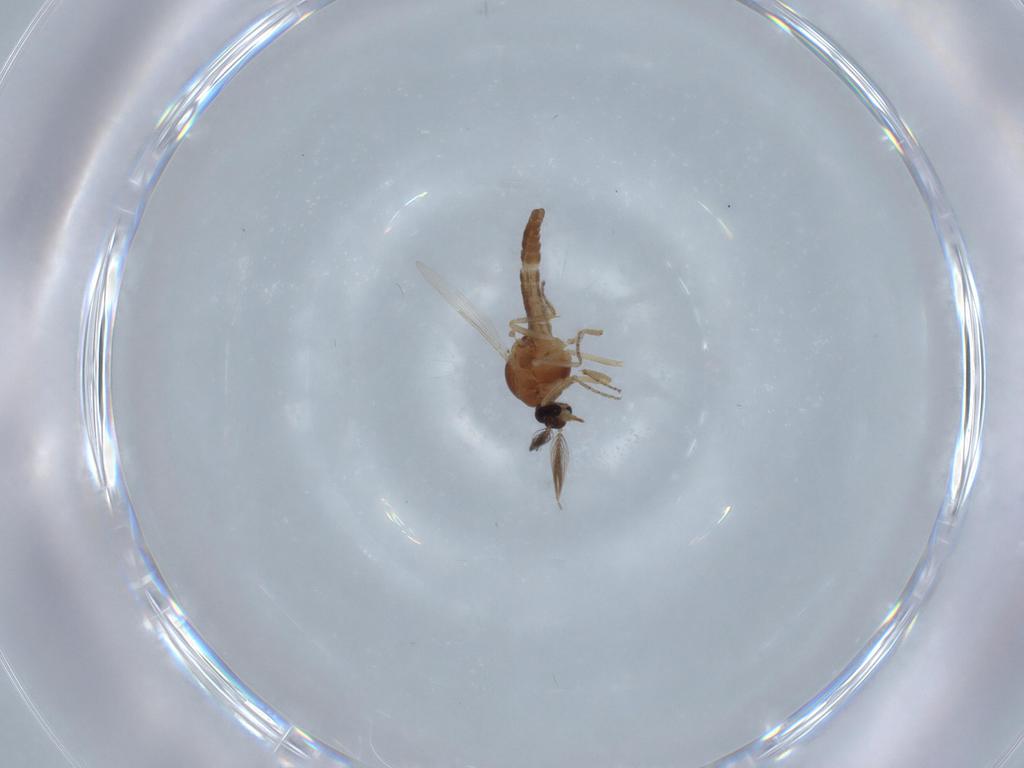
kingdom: Animalia
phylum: Arthropoda
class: Insecta
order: Diptera
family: Ceratopogonidae
